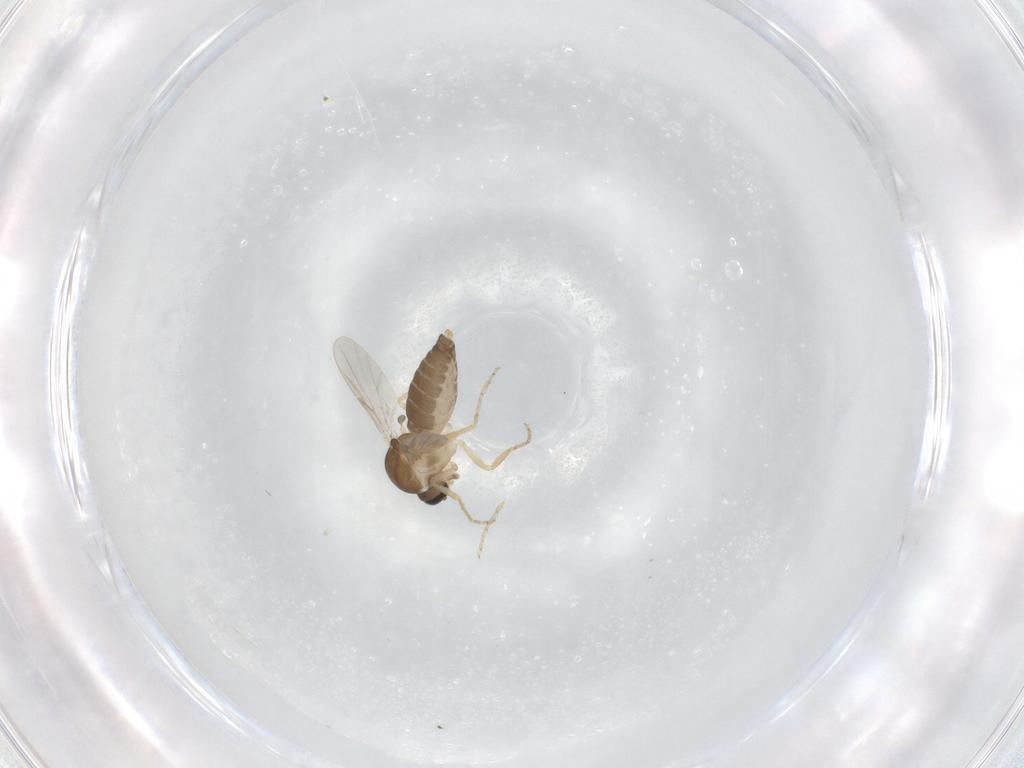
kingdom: Animalia
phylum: Arthropoda
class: Insecta
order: Diptera
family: Ceratopogonidae
